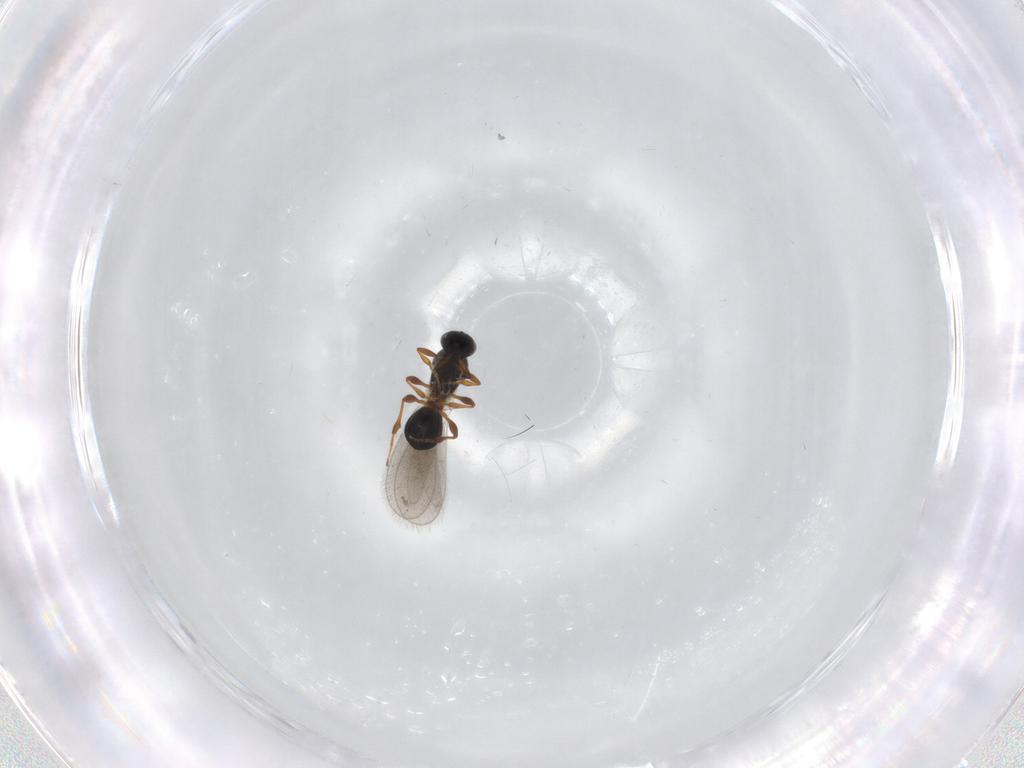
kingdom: Animalia
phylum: Arthropoda
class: Insecta
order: Hymenoptera
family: Platygastridae
